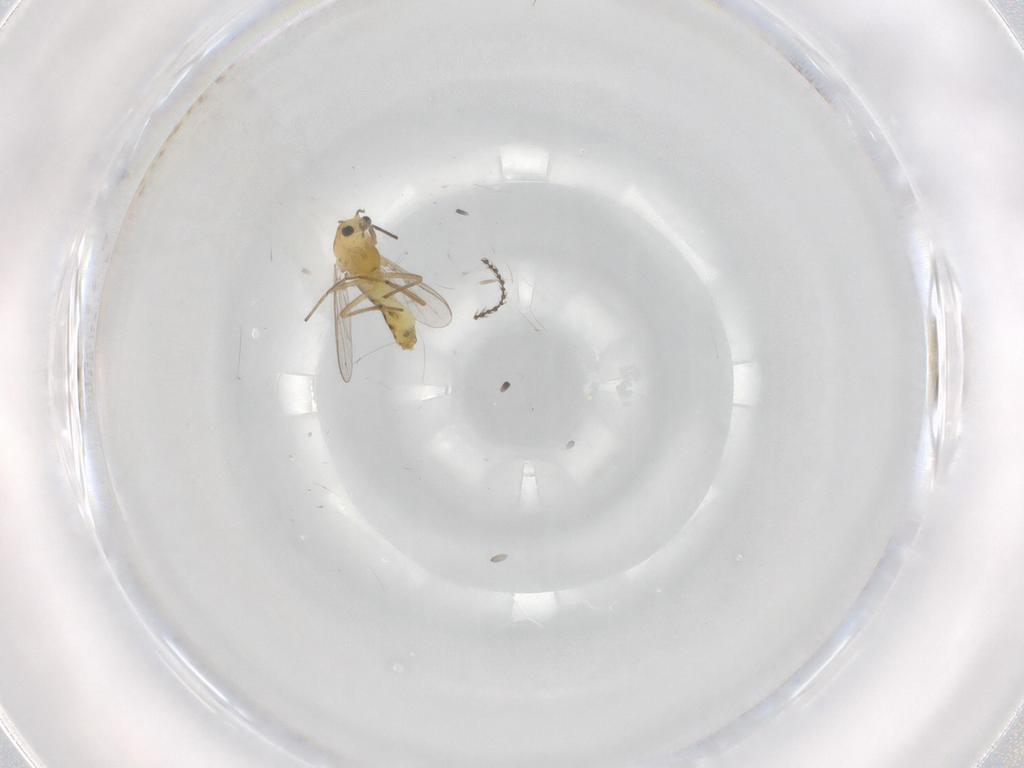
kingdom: Animalia
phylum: Arthropoda
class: Insecta
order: Diptera
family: Chironomidae
